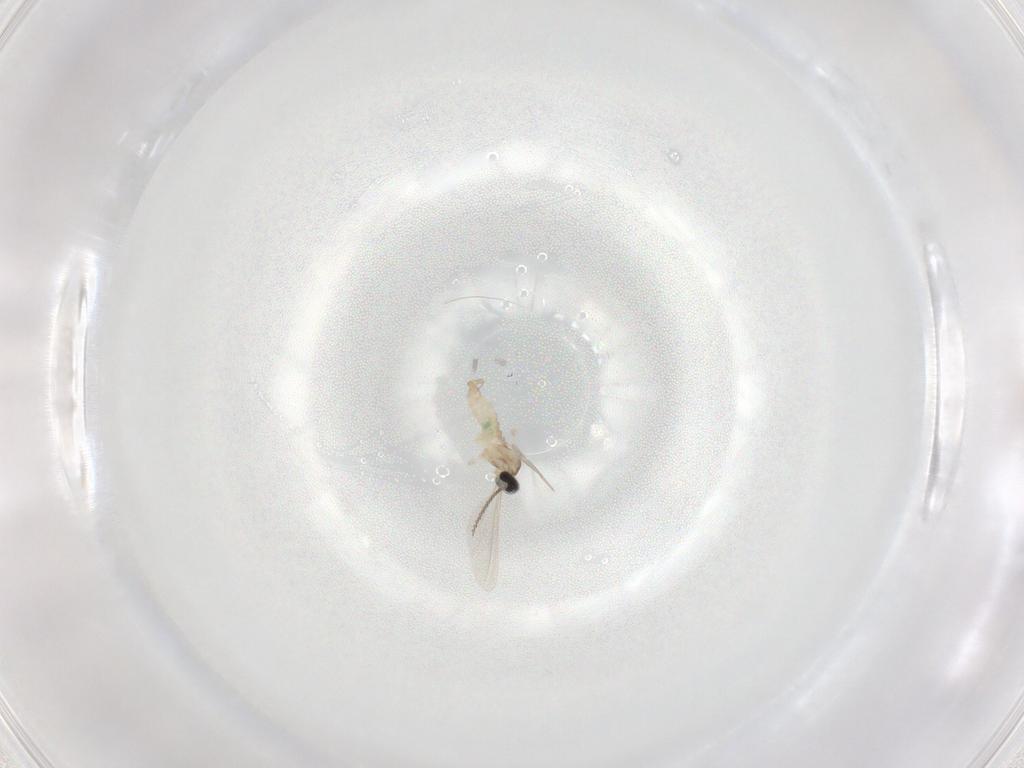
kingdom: Animalia
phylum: Arthropoda
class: Insecta
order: Diptera
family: Cecidomyiidae
